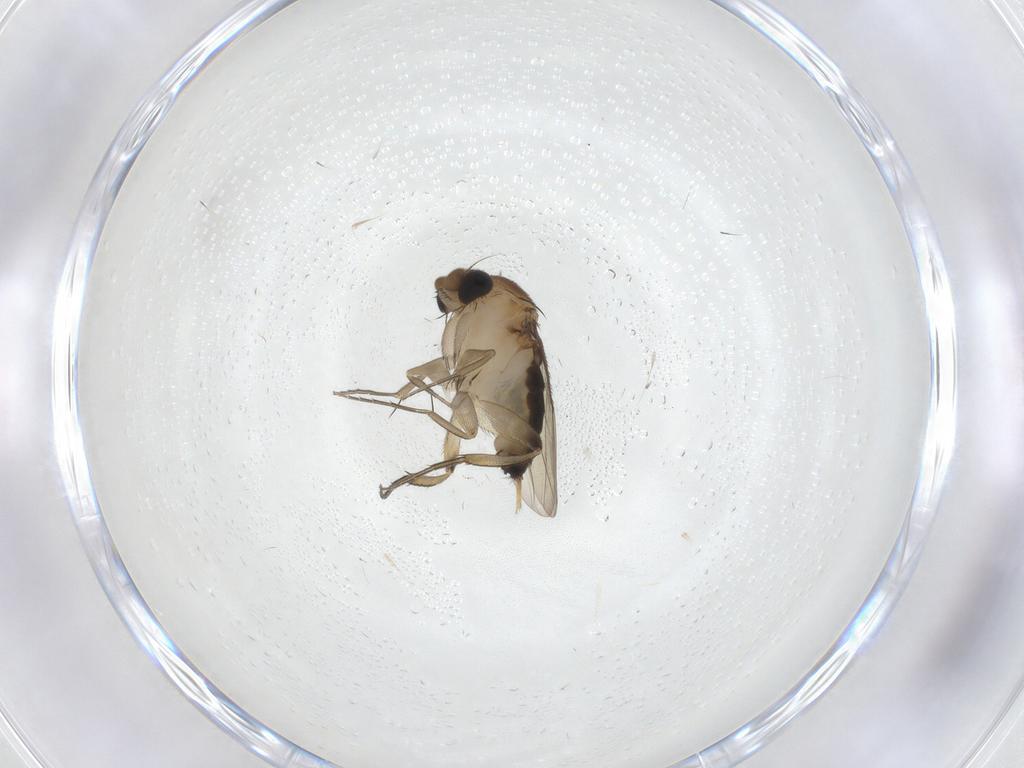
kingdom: Animalia
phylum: Arthropoda
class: Insecta
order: Diptera
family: Phoridae
